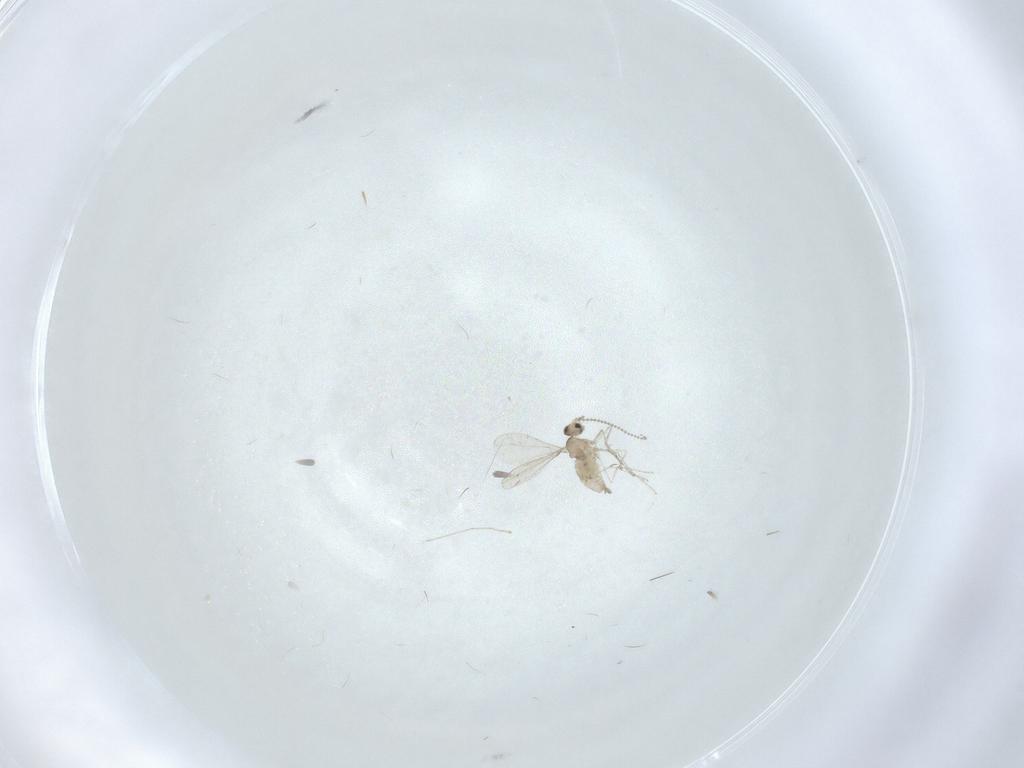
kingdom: Animalia
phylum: Arthropoda
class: Insecta
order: Diptera
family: Cecidomyiidae
